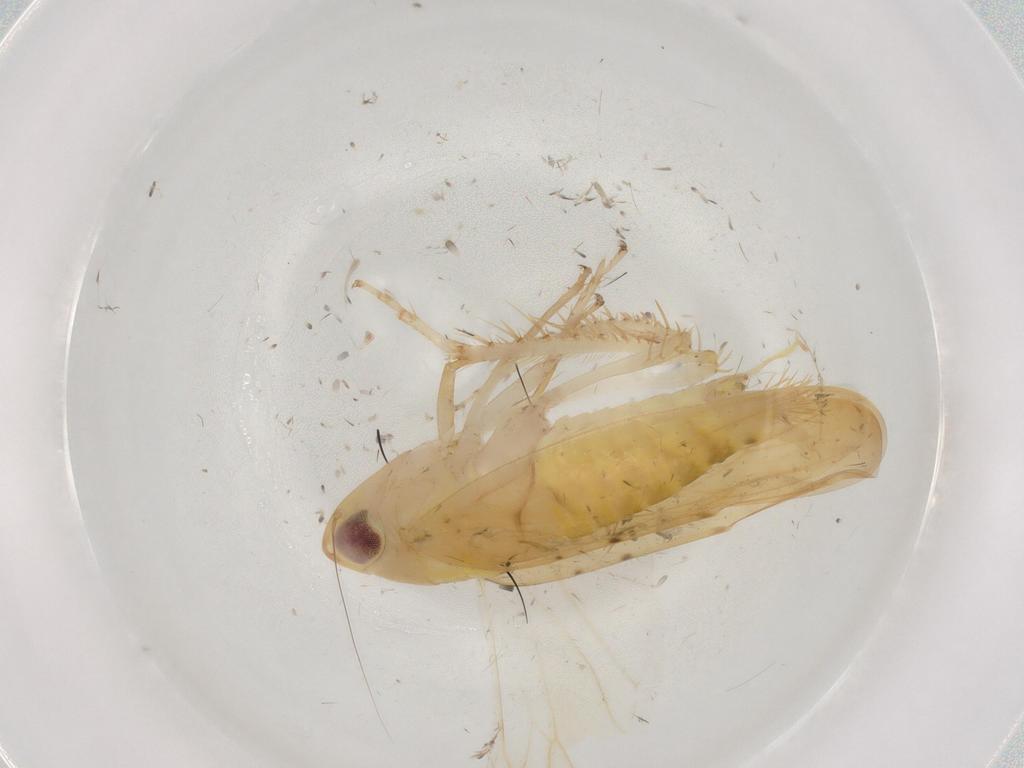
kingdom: Animalia
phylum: Arthropoda
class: Insecta
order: Hemiptera
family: Cicadellidae
